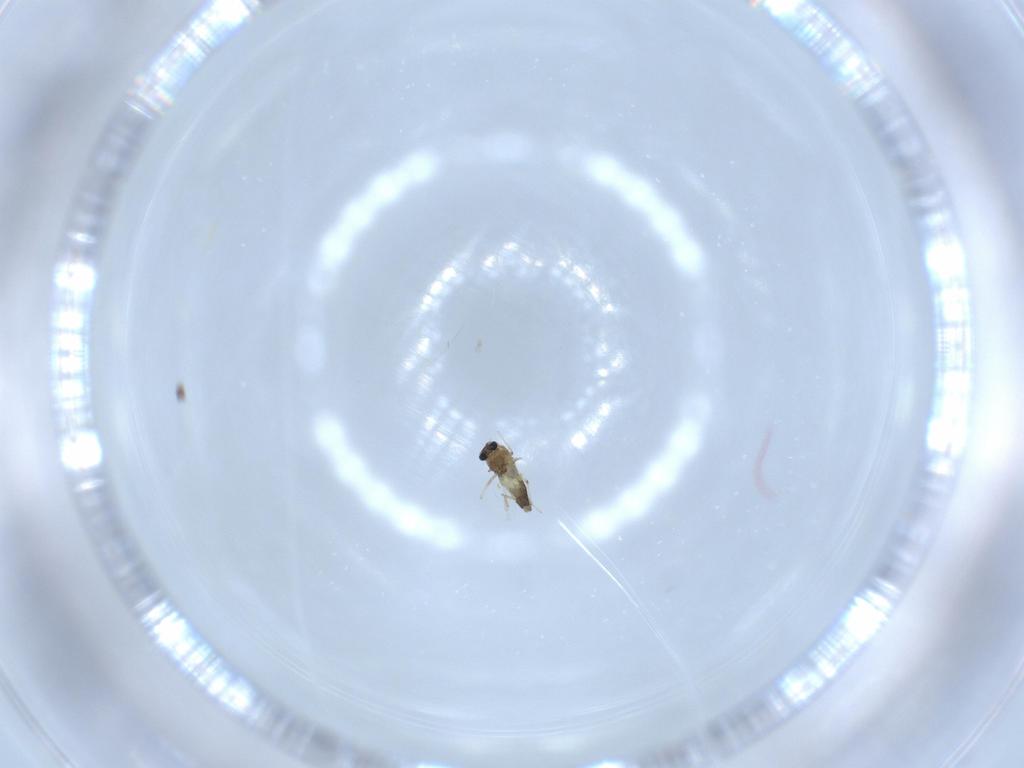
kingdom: Animalia
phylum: Arthropoda
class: Insecta
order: Diptera
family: Chironomidae
